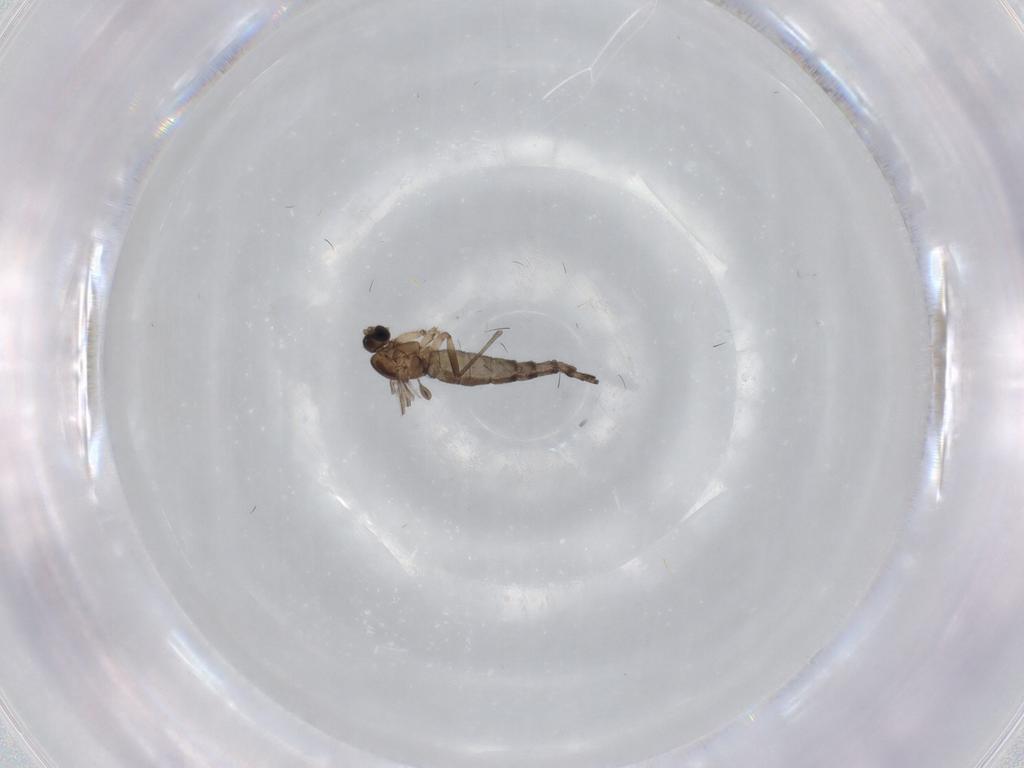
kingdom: Animalia
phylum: Arthropoda
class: Insecta
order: Diptera
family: Sciaridae
